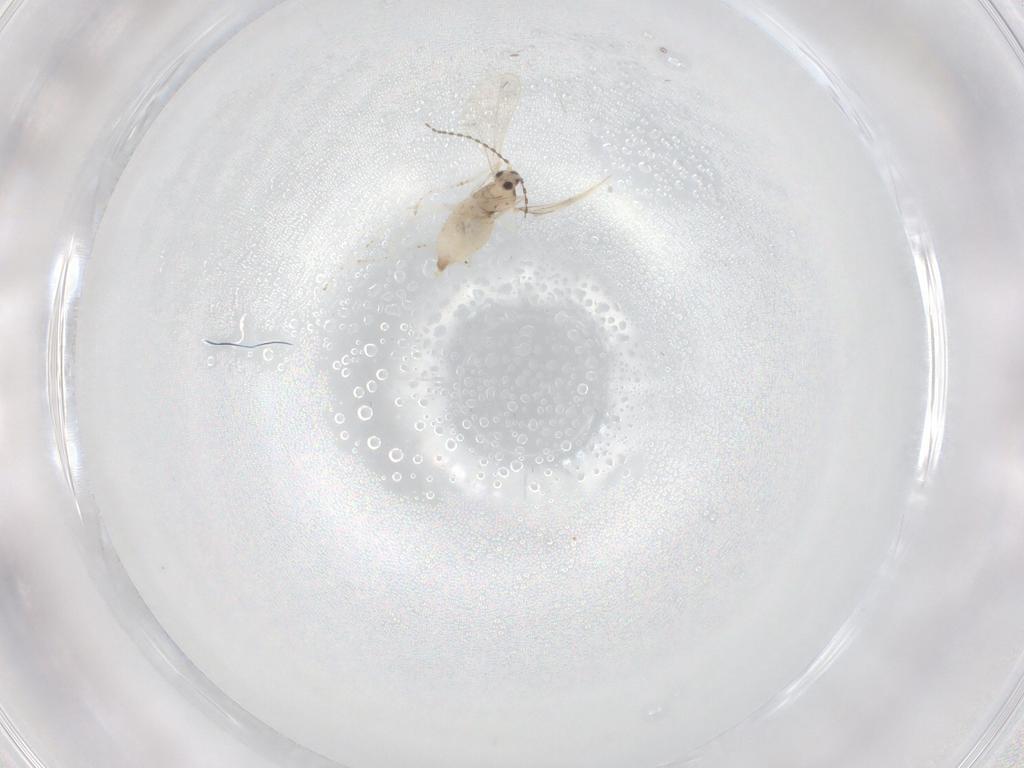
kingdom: Animalia
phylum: Arthropoda
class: Insecta
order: Diptera
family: Cecidomyiidae
